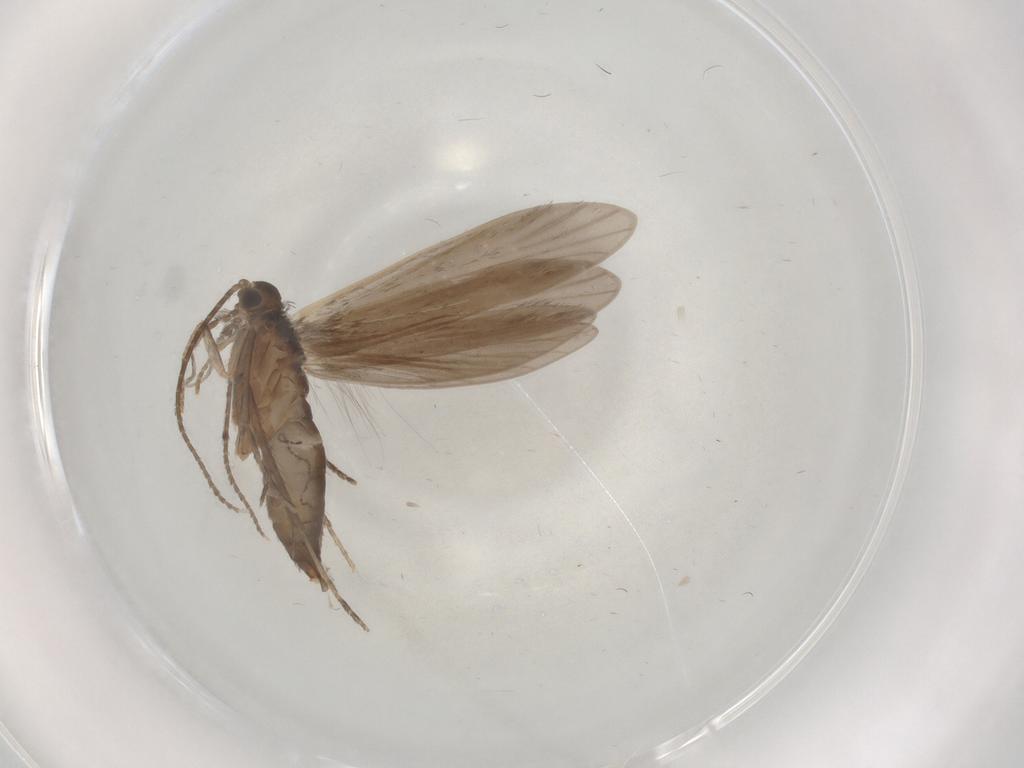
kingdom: Animalia
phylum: Arthropoda
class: Insecta
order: Trichoptera
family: Xiphocentronidae
